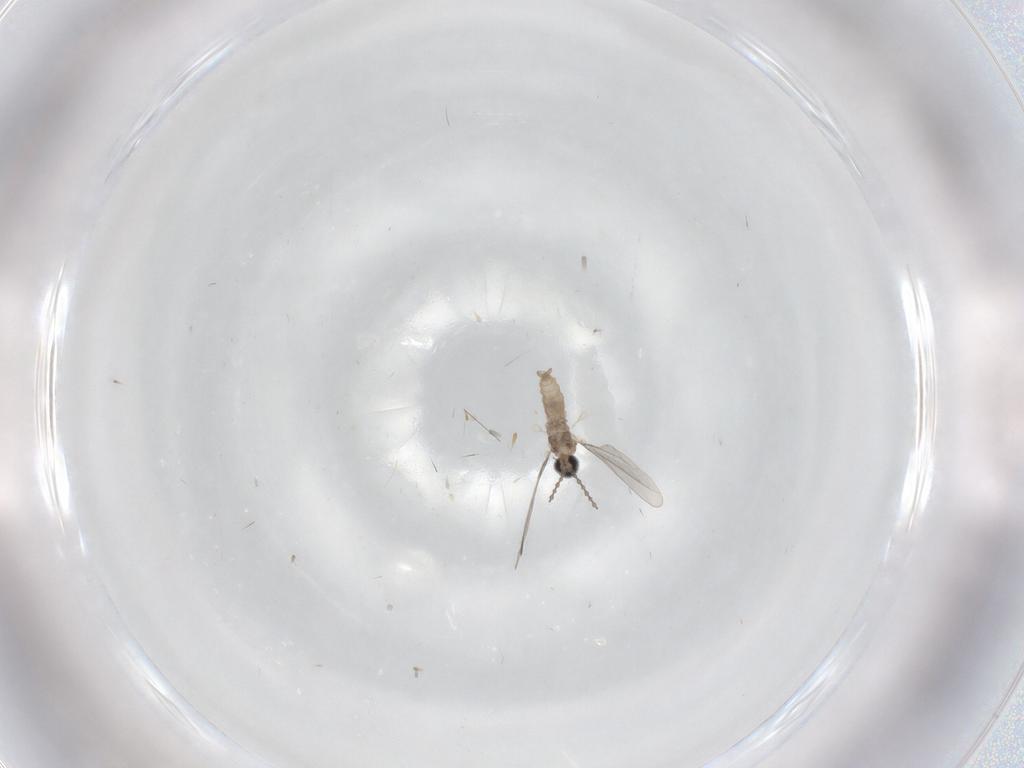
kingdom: Animalia
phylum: Arthropoda
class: Insecta
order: Diptera
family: Cecidomyiidae
